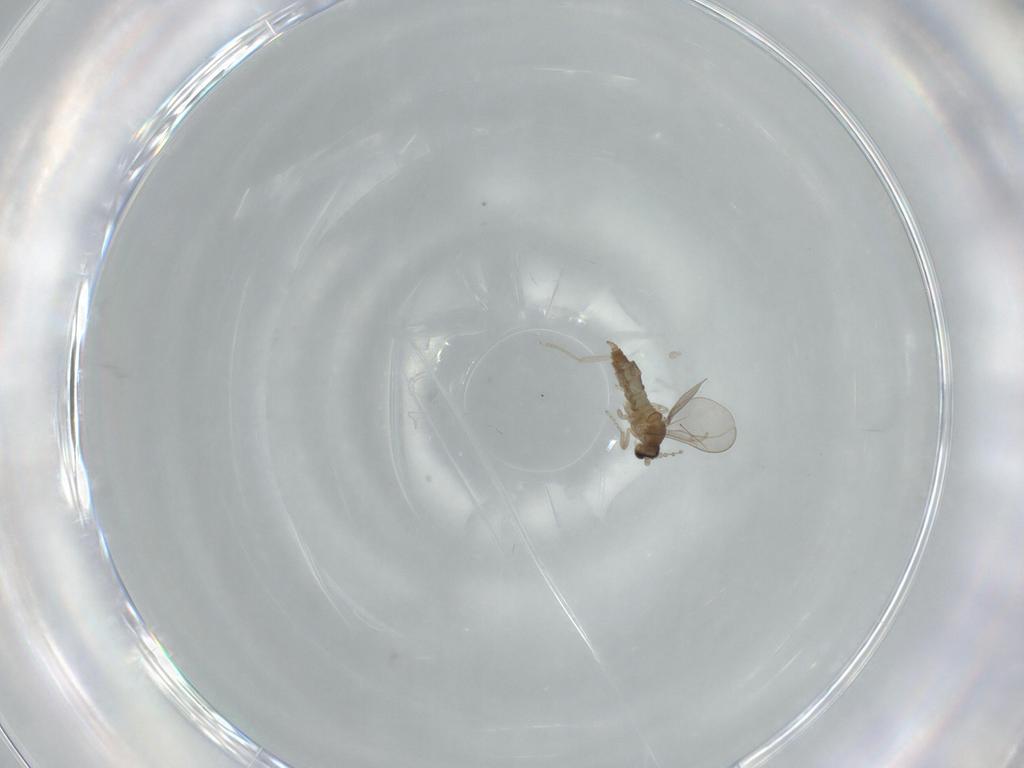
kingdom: Animalia
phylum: Arthropoda
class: Insecta
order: Diptera
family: Cecidomyiidae
